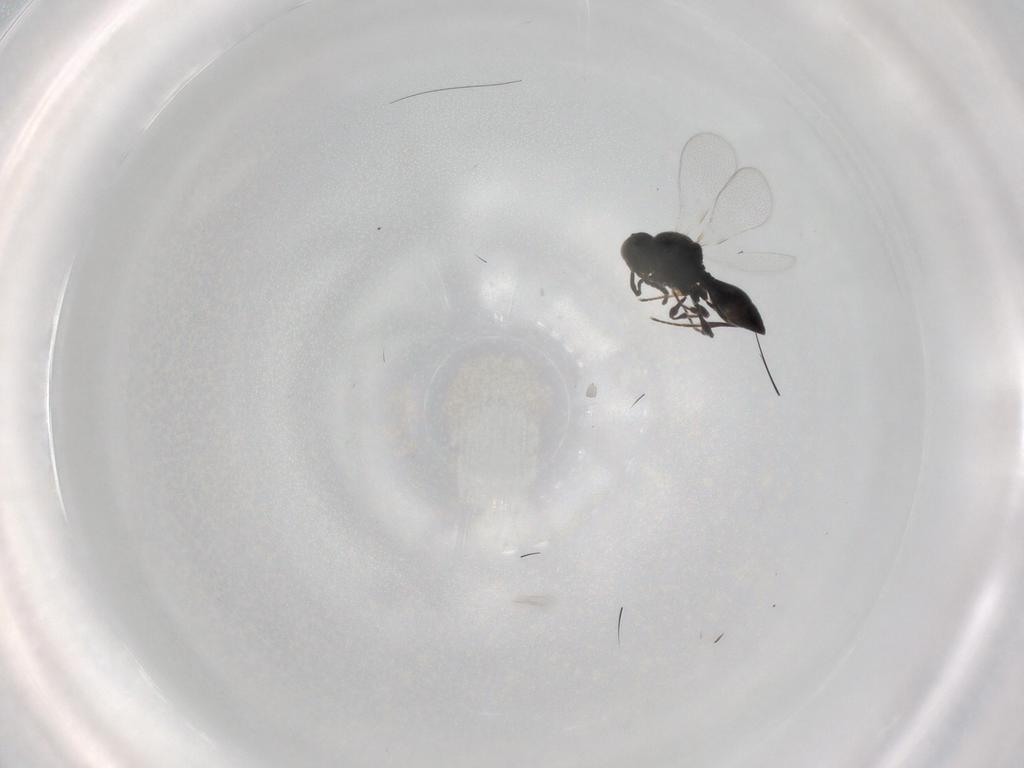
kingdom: Animalia
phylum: Arthropoda
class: Insecta
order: Hymenoptera
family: Platygastridae
